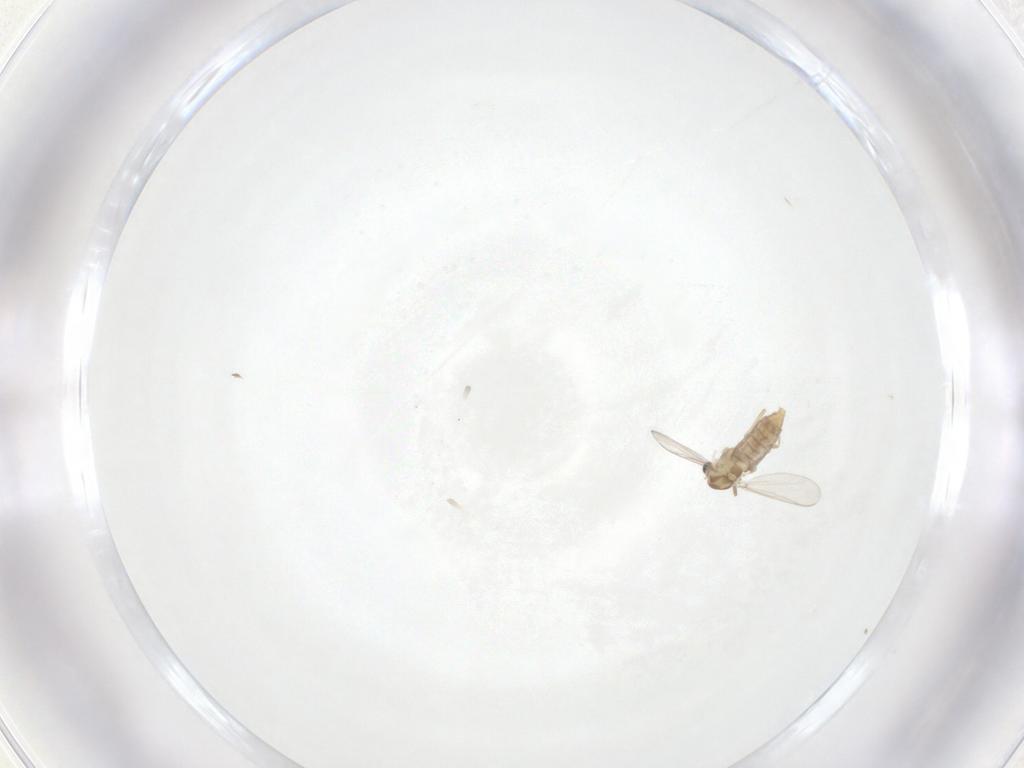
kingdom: Animalia
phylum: Arthropoda
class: Insecta
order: Diptera
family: Chironomidae
